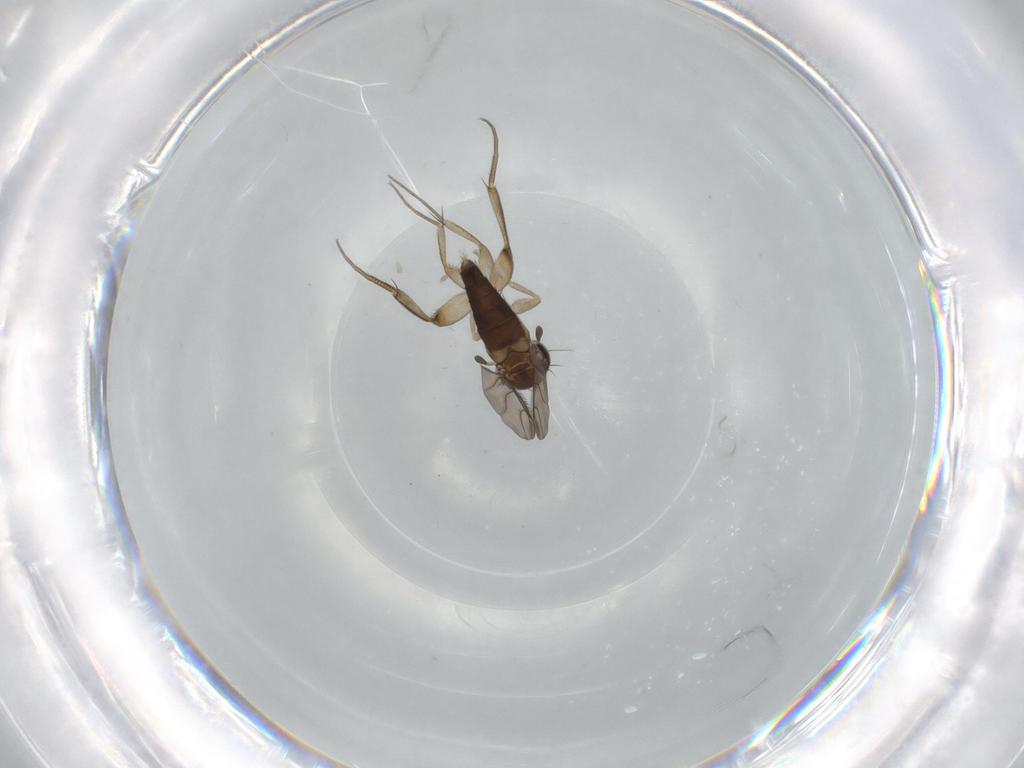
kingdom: Animalia
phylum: Arthropoda
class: Insecta
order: Diptera
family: Phoridae
